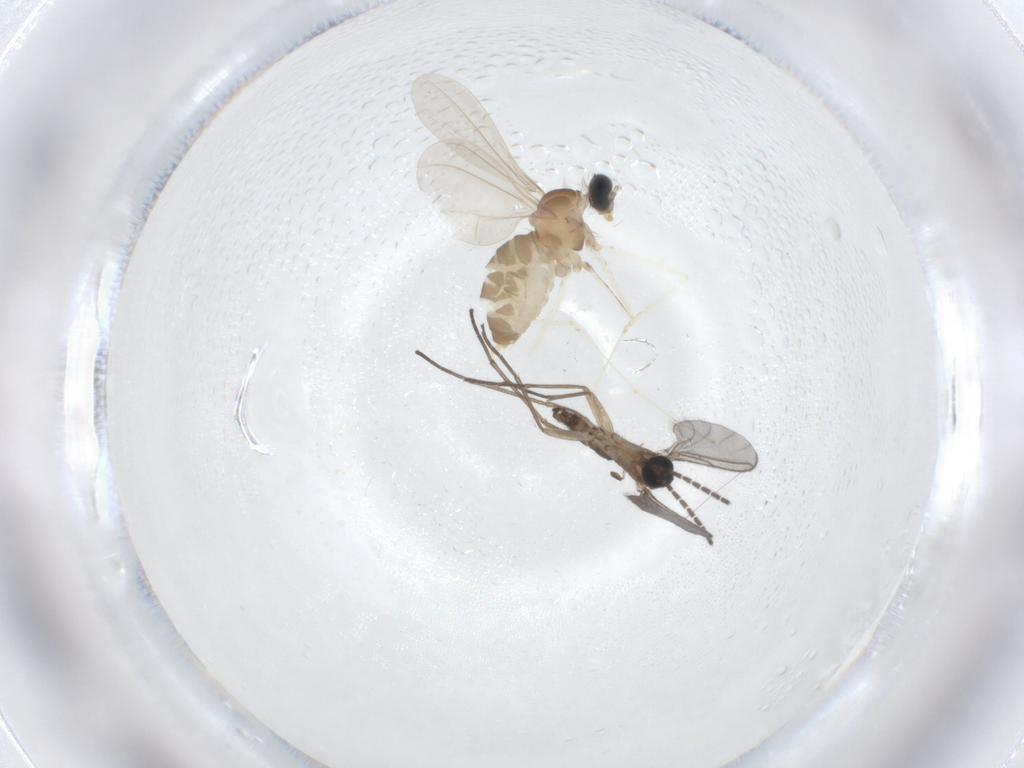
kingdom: Animalia
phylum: Arthropoda
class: Insecta
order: Diptera
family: Cecidomyiidae
